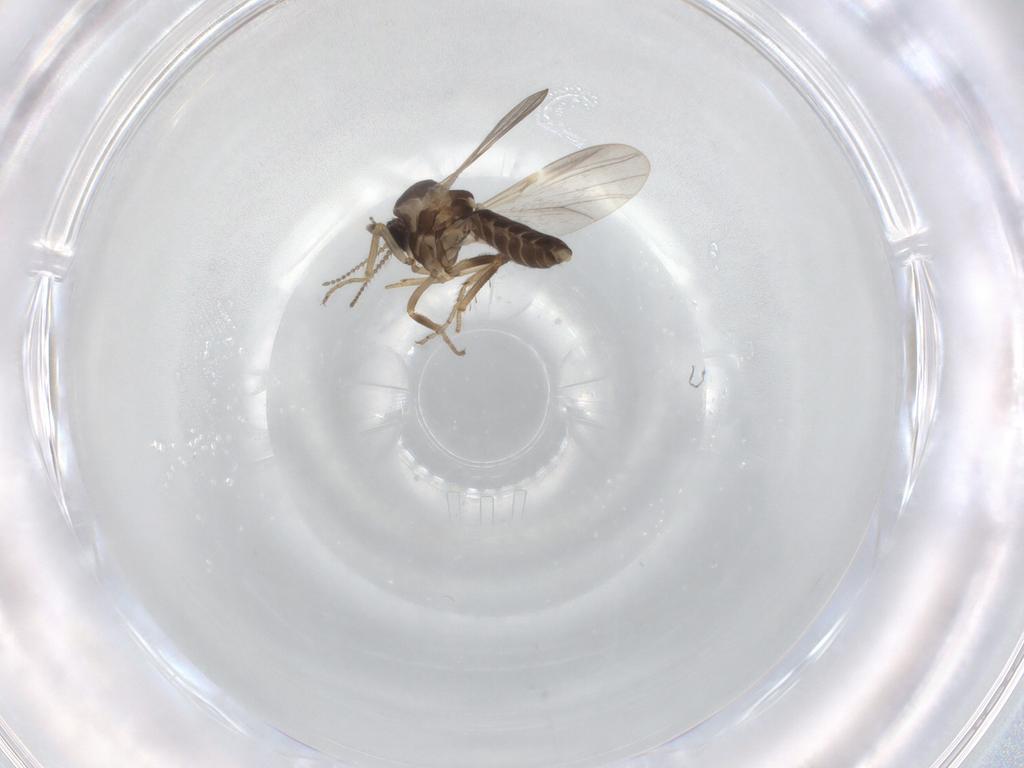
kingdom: Animalia
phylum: Arthropoda
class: Insecta
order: Diptera
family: Ceratopogonidae
